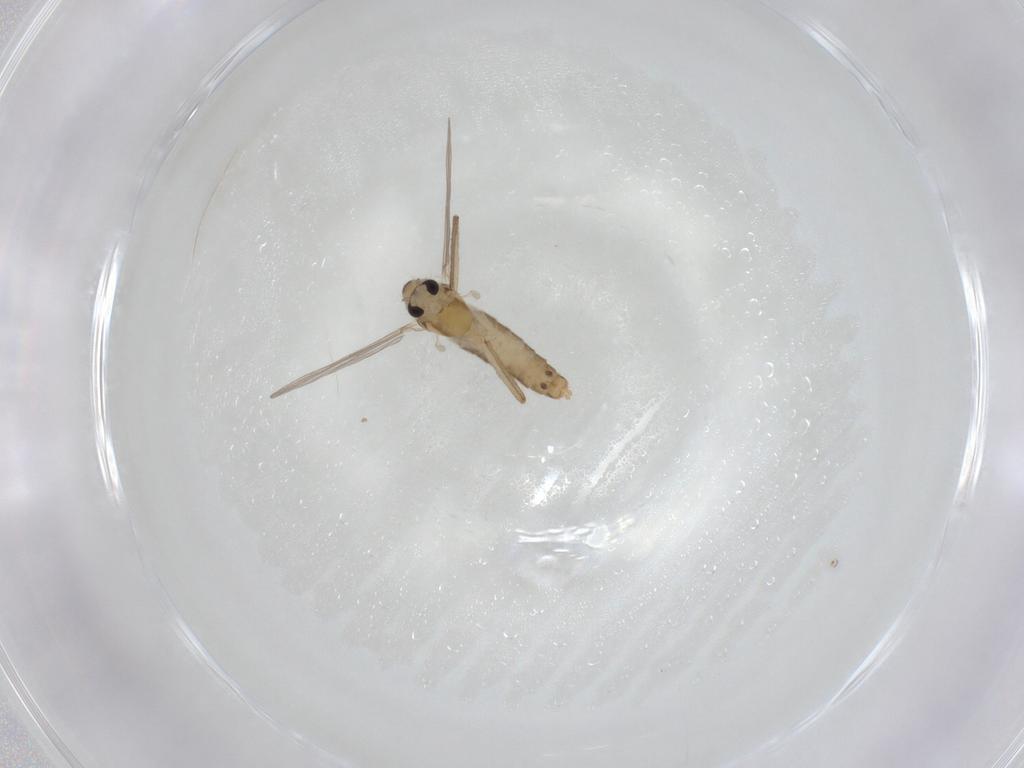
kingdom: Animalia
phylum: Arthropoda
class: Insecta
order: Diptera
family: Chironomidae
